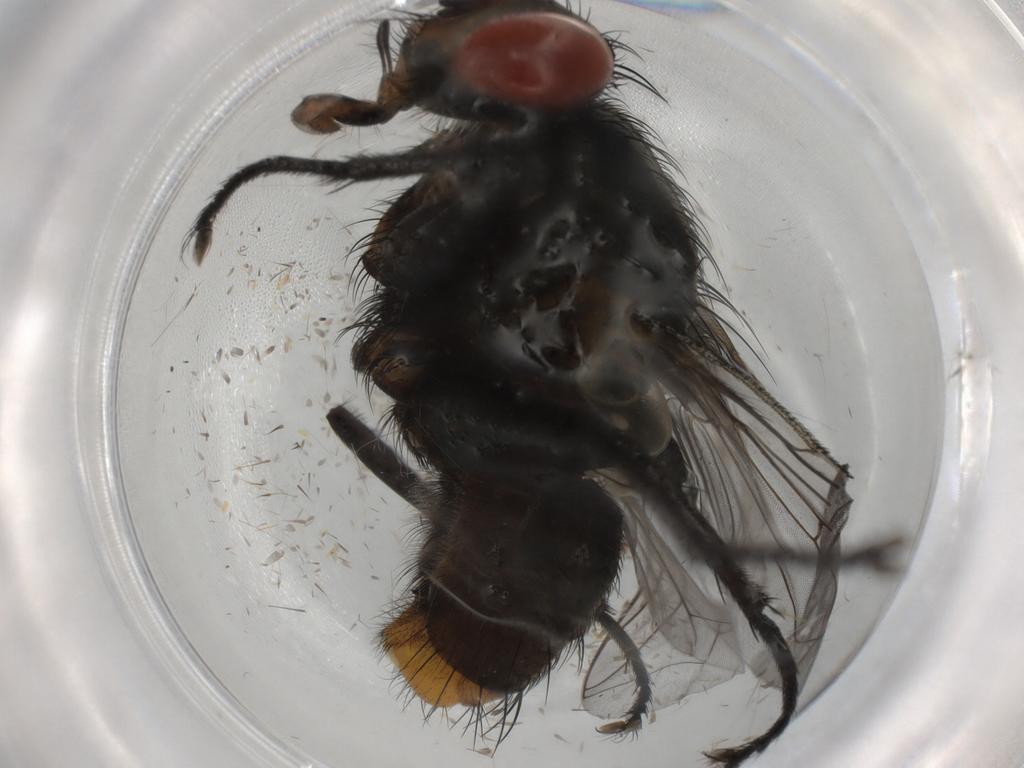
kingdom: Animalia
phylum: Arthropoda
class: Insecta
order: Diptera
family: Sarcophagidae
